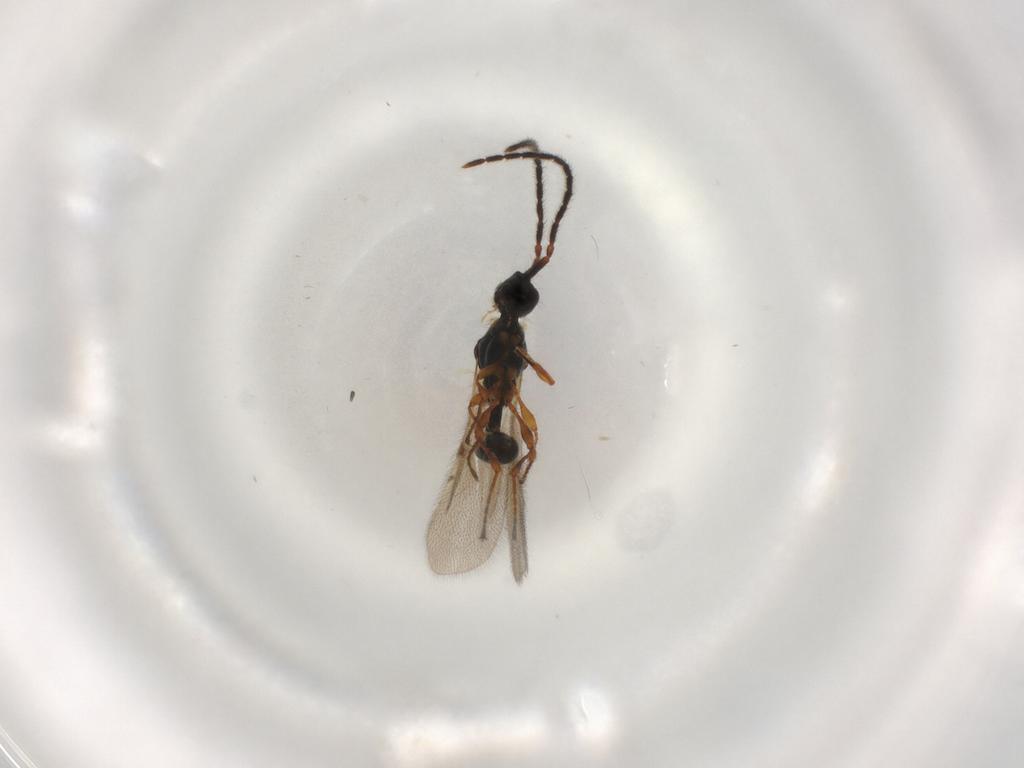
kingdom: Animalia
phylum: Arthropoda
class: Insecta
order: Hymenoptera
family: Diapriidae
